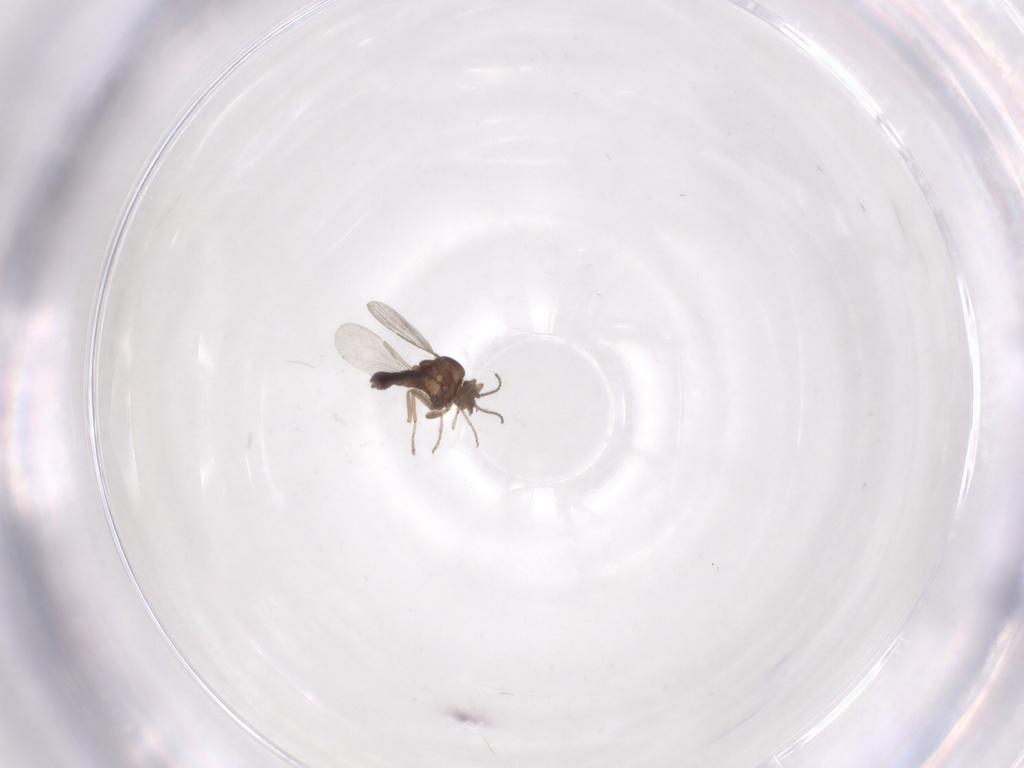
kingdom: Animalia
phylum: Arthropoda
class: Insecta
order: Diptera
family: Ceratopogonidae
